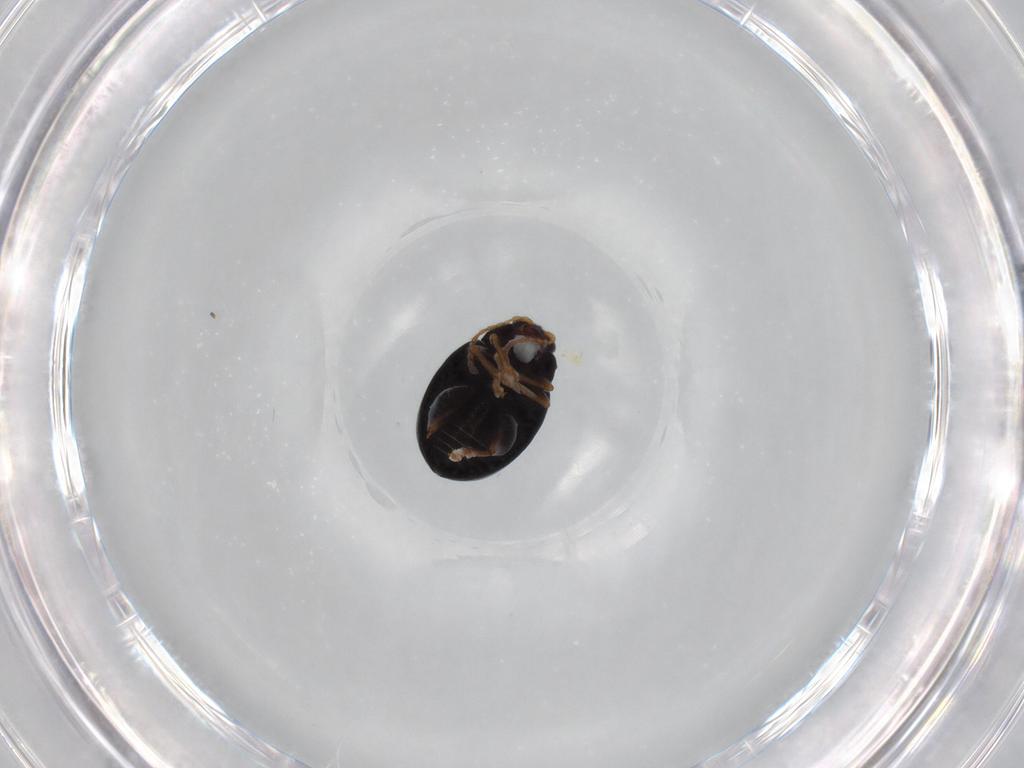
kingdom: Animalia
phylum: Arthropoda
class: Insecta
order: Coleoptera
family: Chrysomelidae
